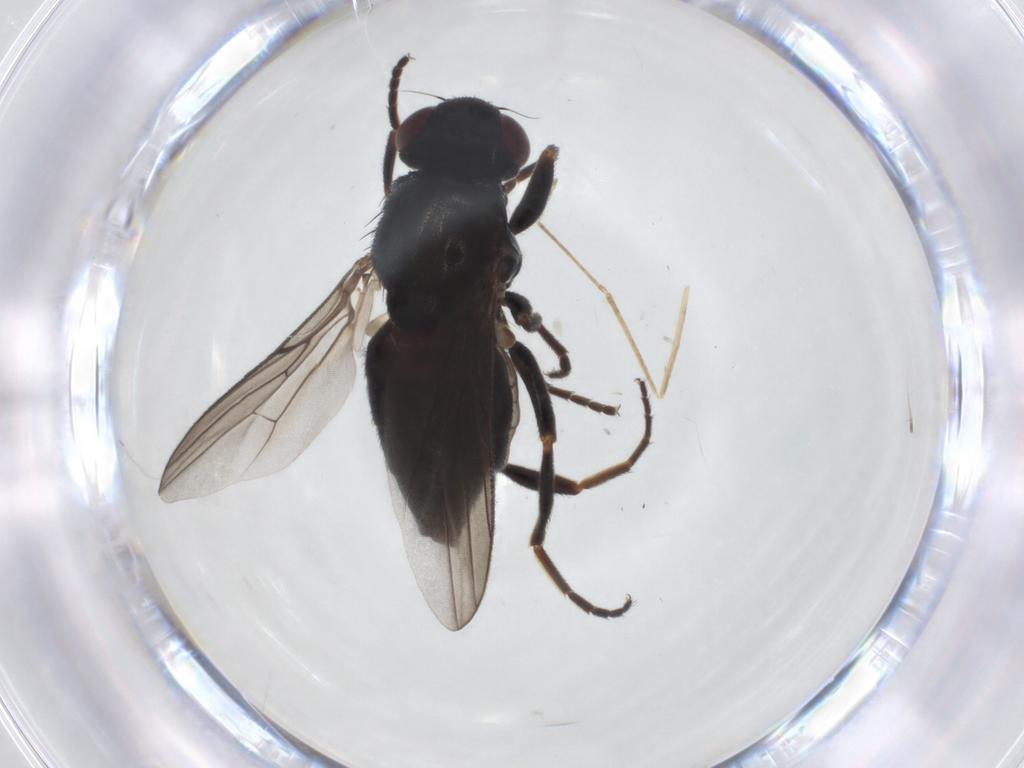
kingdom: Animalia
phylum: Arthropoda
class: Insecta
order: Diptera
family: Chloropidae
